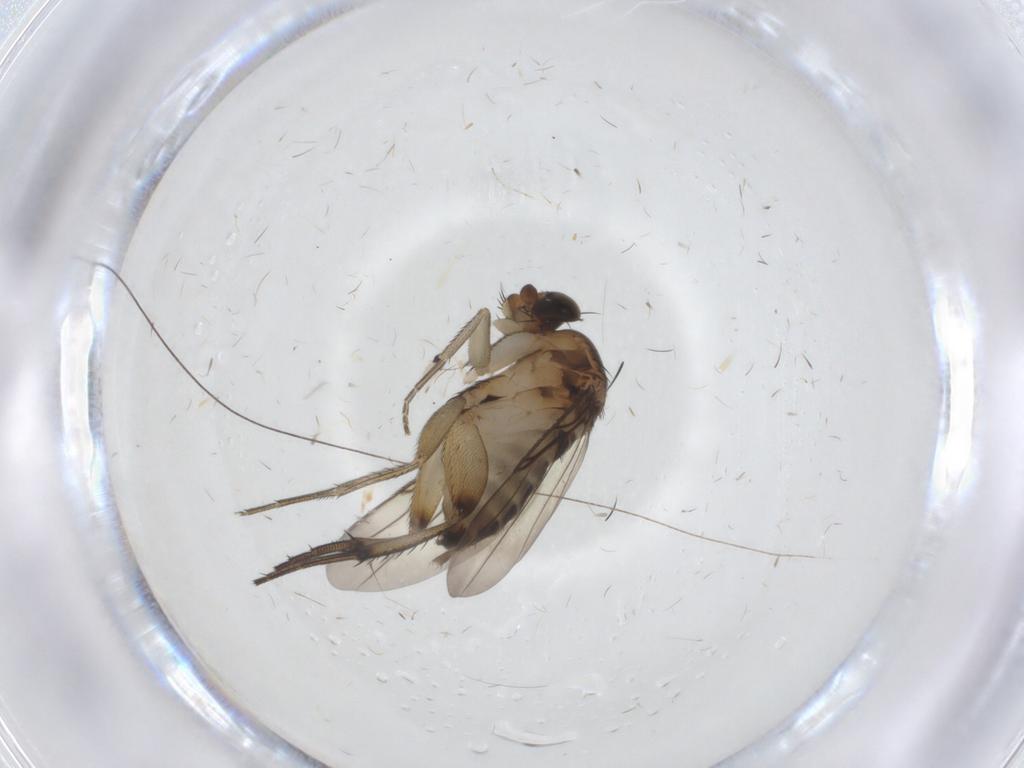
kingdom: Animalia
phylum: Arthropoda
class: Insecta
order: Diptera
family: Phoridae
